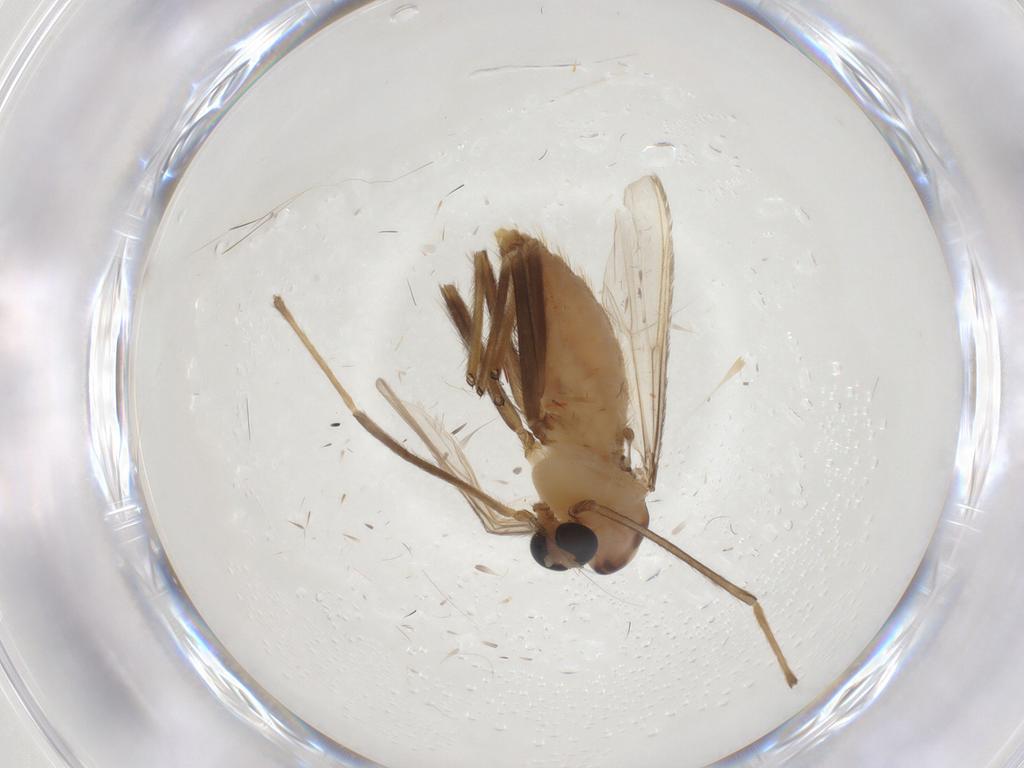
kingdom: Animalia
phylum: Arthropoda
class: Insecta
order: Diptera
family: Chironomidae
